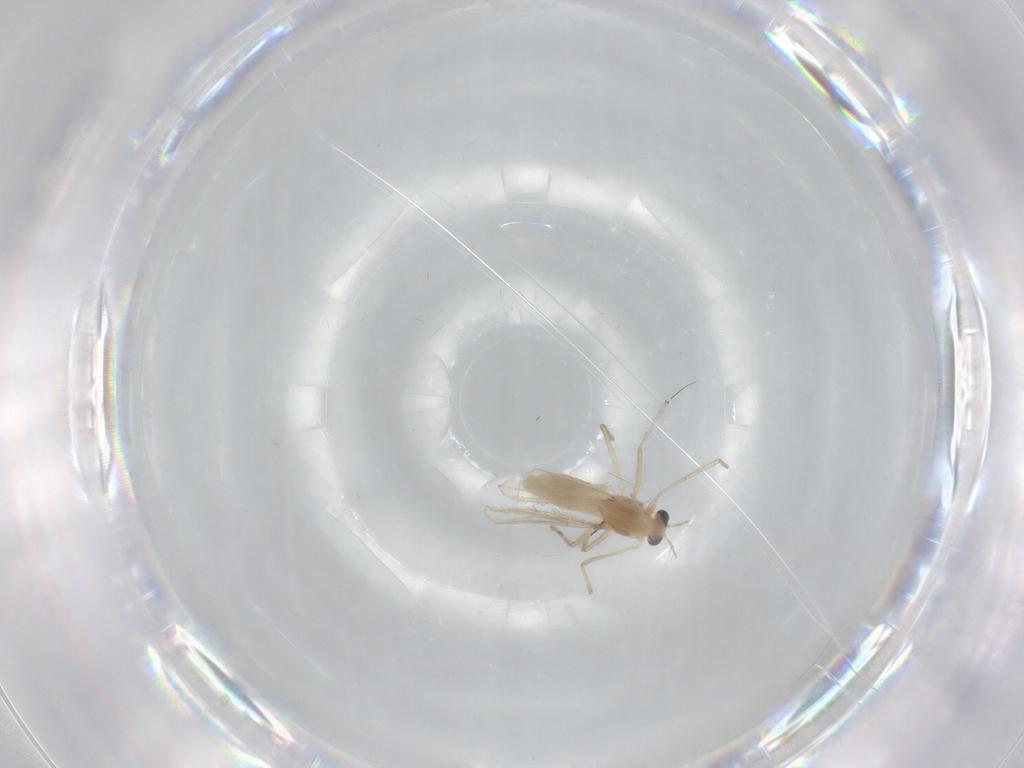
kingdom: Animalia
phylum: Arthropoda
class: Insecta
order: Diptera
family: Chironomidae
